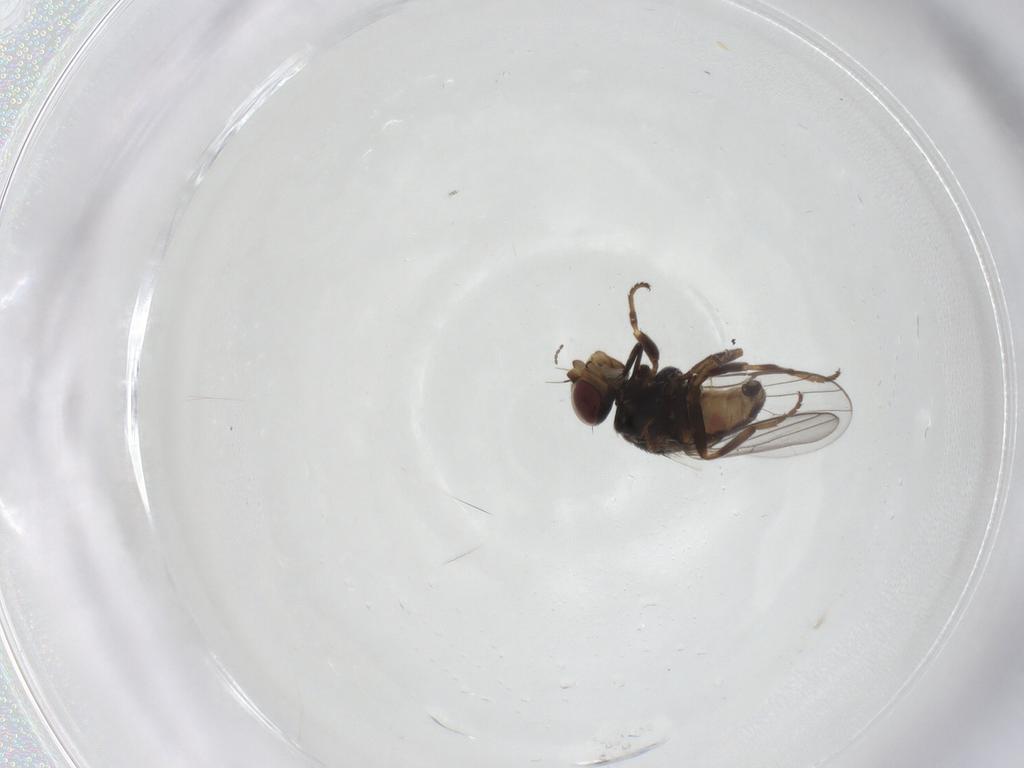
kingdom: Animalia
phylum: Arthropoda
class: Insecta
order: Diptera
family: Chloropidae
